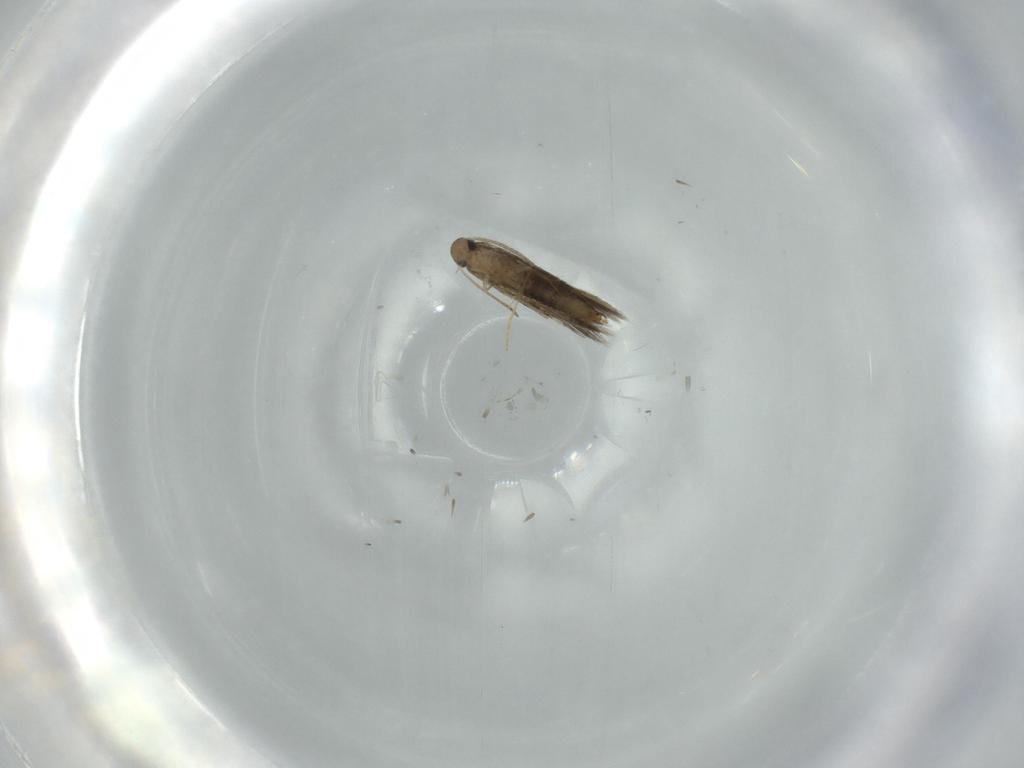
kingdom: Animalia
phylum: Arthropoda
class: Insecta
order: Lepidoptera
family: Heliozelidae
